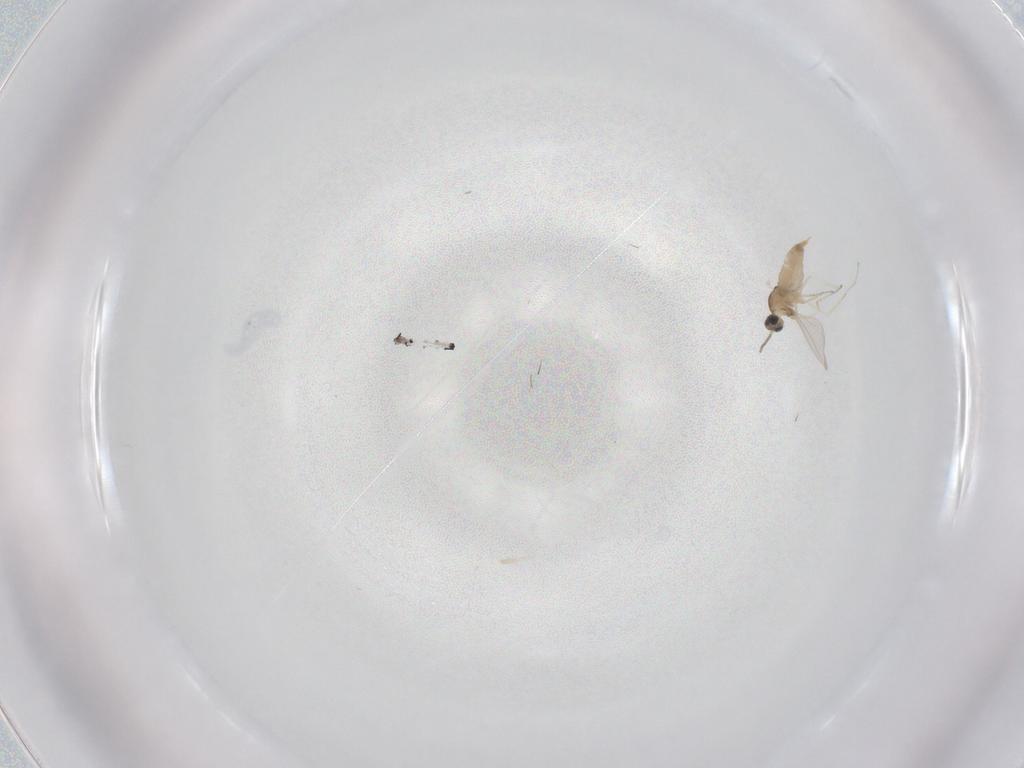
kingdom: Animalia
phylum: Arthropoda
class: Insecta
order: Diptera
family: Cecidomyiidae
